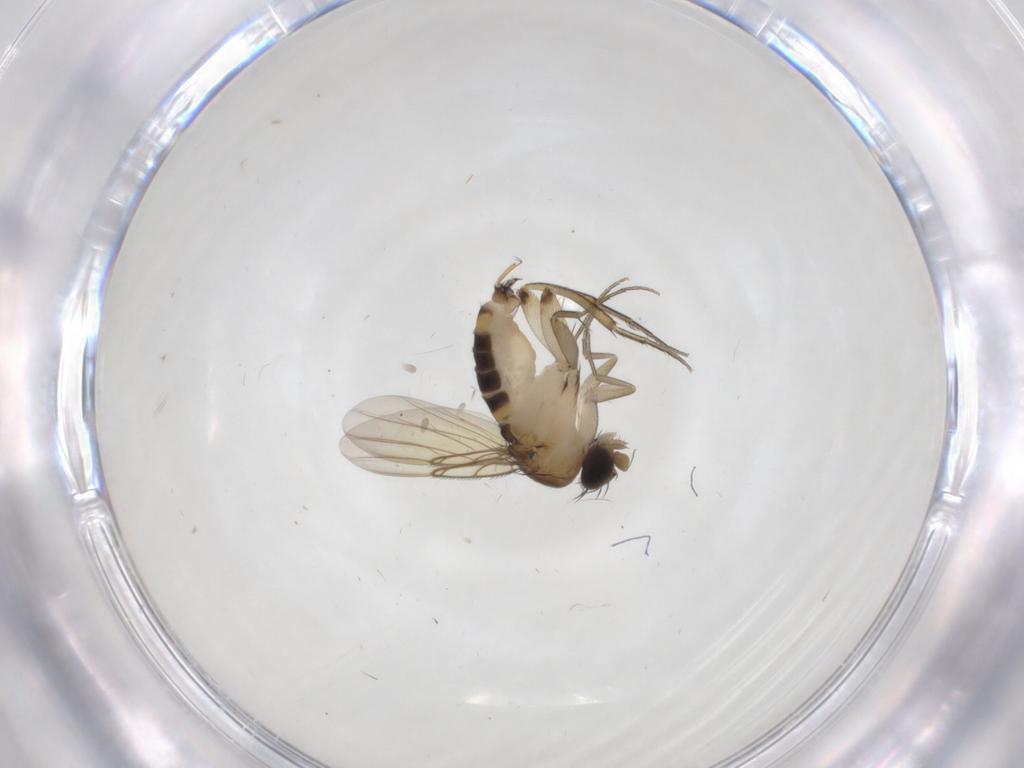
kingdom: Animalia
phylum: Arthropoda
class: Insecta
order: Diptera
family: Phoridae
